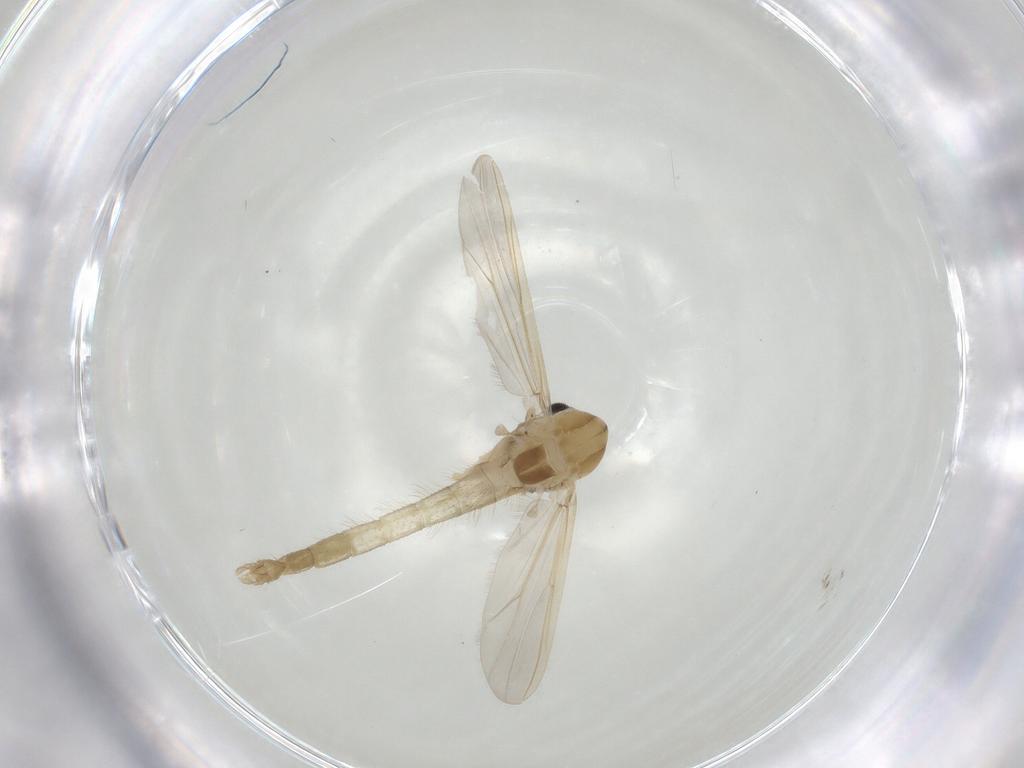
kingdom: Animalia
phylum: Arthropoda
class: Insecta
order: Diptera
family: Chironomidae
